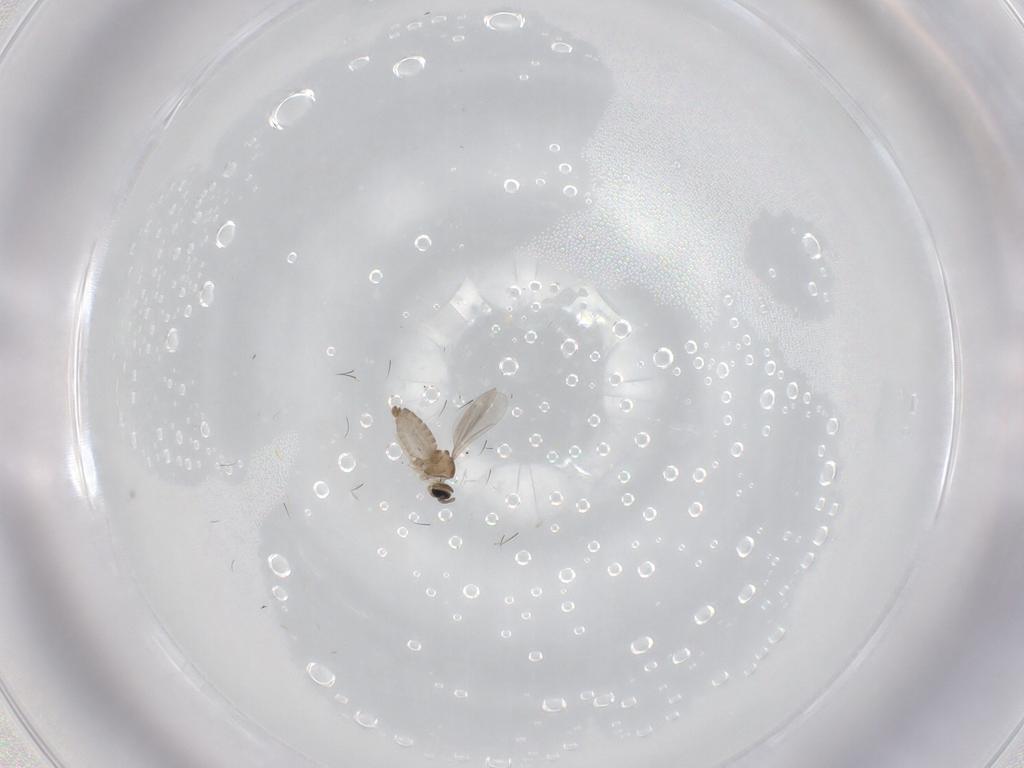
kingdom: Animalia
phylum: Arthropoda
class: Insecta
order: Diptera
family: Cecidomyiidae
